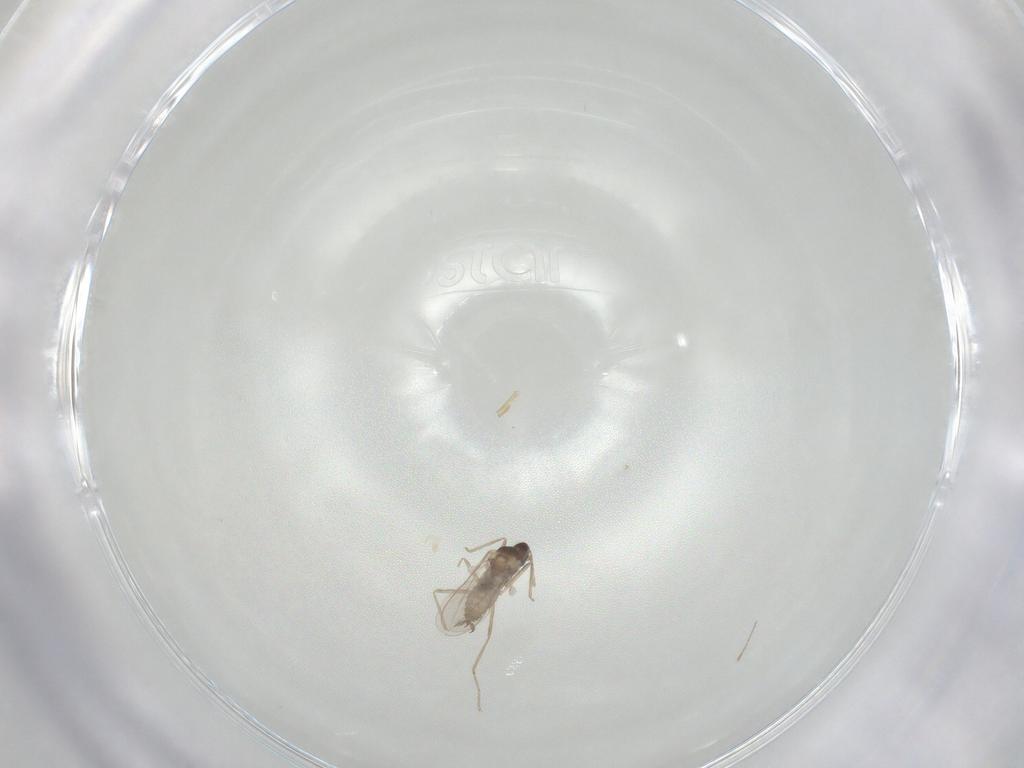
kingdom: Animalia
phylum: Arthropoda
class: Insecta
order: Diptera
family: Cecidomyiidae
